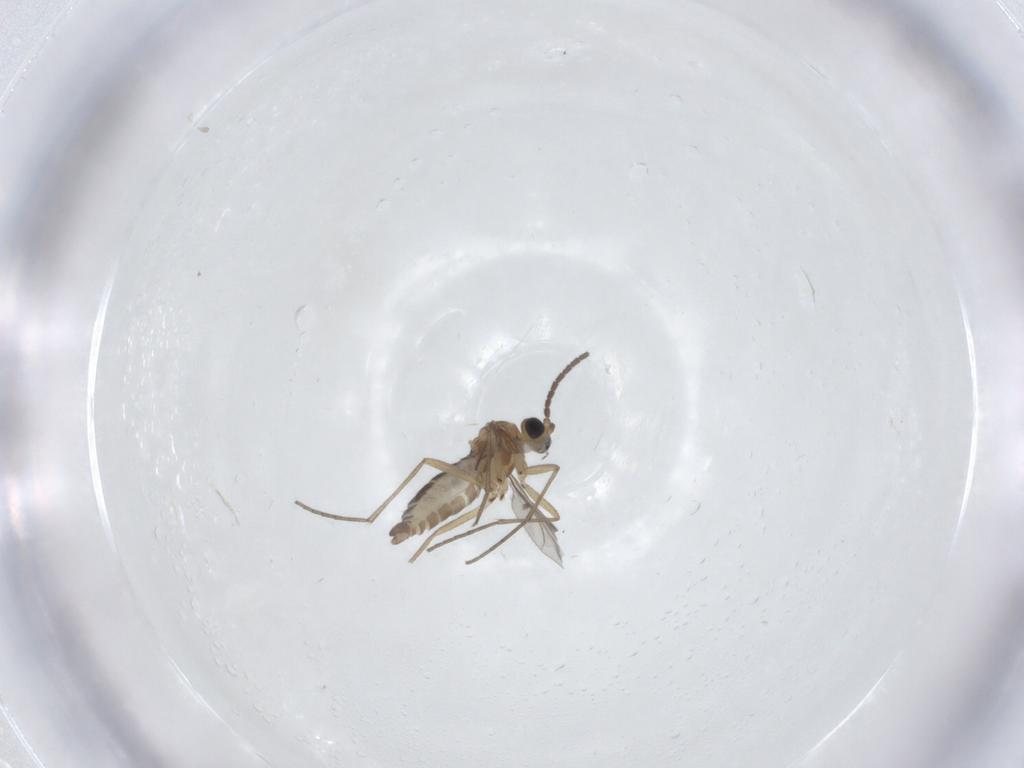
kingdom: Animalia
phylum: Arthropoda
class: Insecta
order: Diptera
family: Sciaridae
